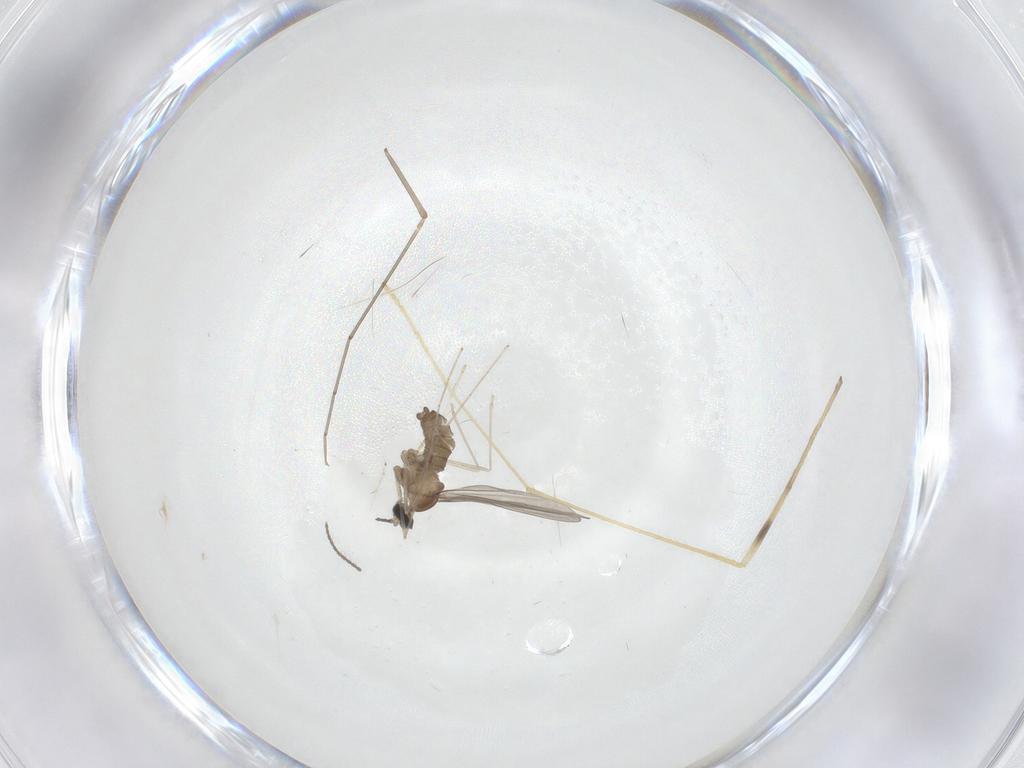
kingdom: Animalia
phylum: Arthropoda
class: Insecta
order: Diptera
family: Cecidomyiidae
